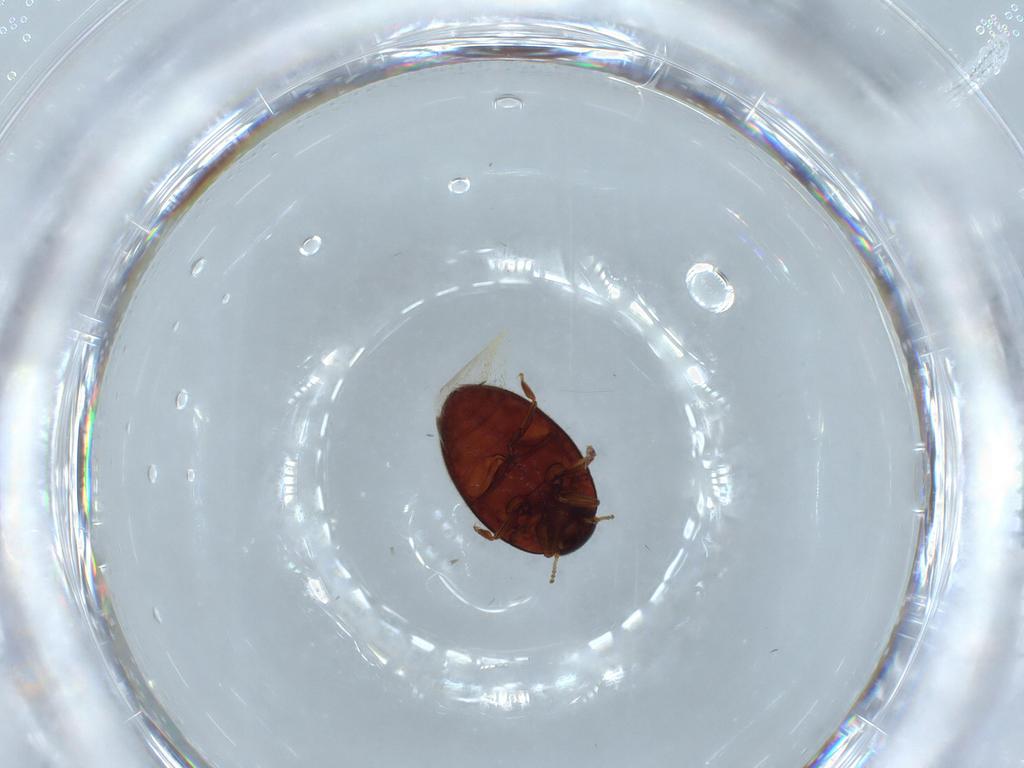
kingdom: Animalia
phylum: Arthropoda
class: Insecta
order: Coleoptera
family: Limnichidae
